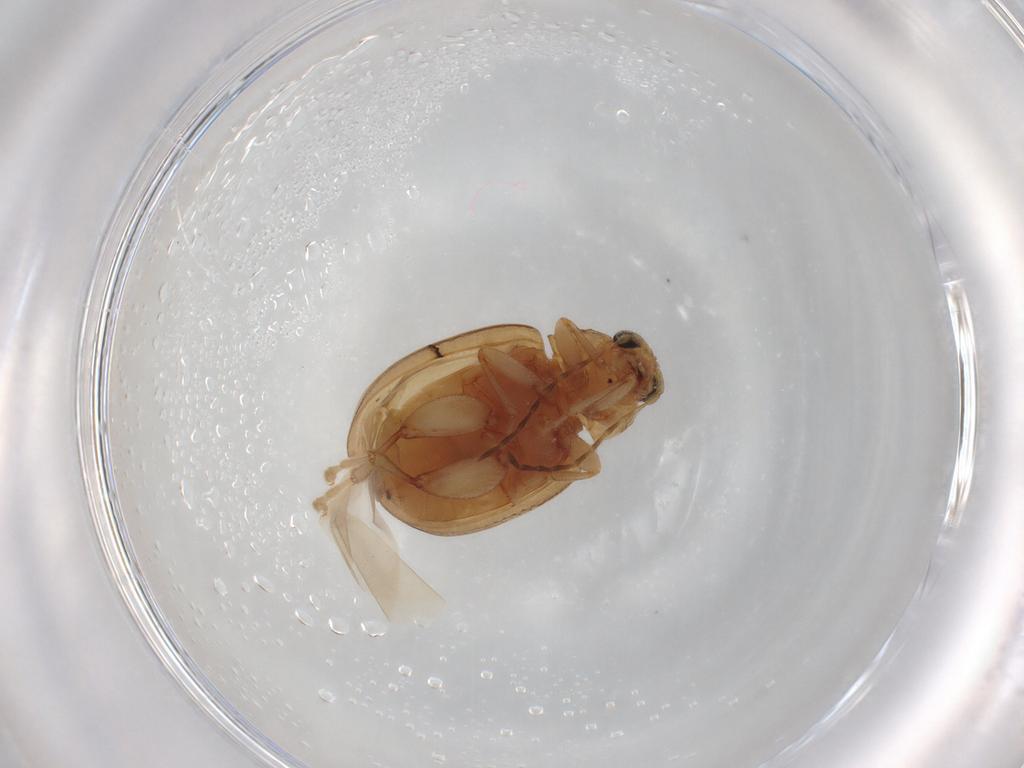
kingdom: Animalia
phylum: Arthropoda
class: Insecta
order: Coleoptera
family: Chrysomelidae
